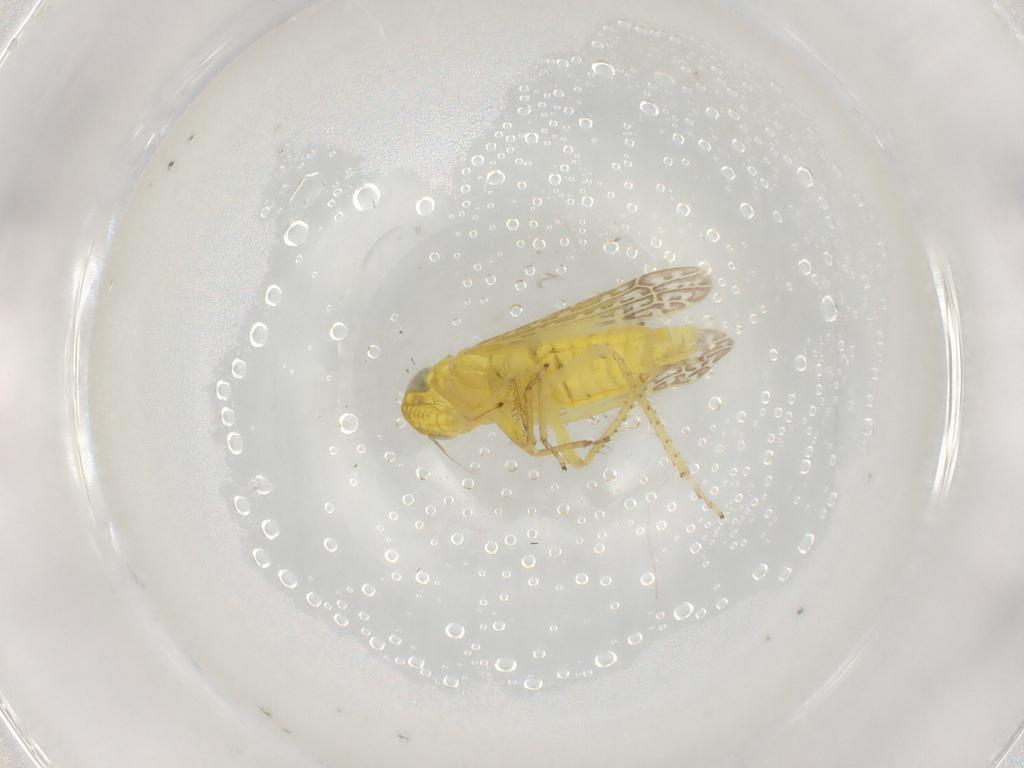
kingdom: Animalia
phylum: Arthropoda
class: Insecta
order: Hemiptera
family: Cicadellidae
